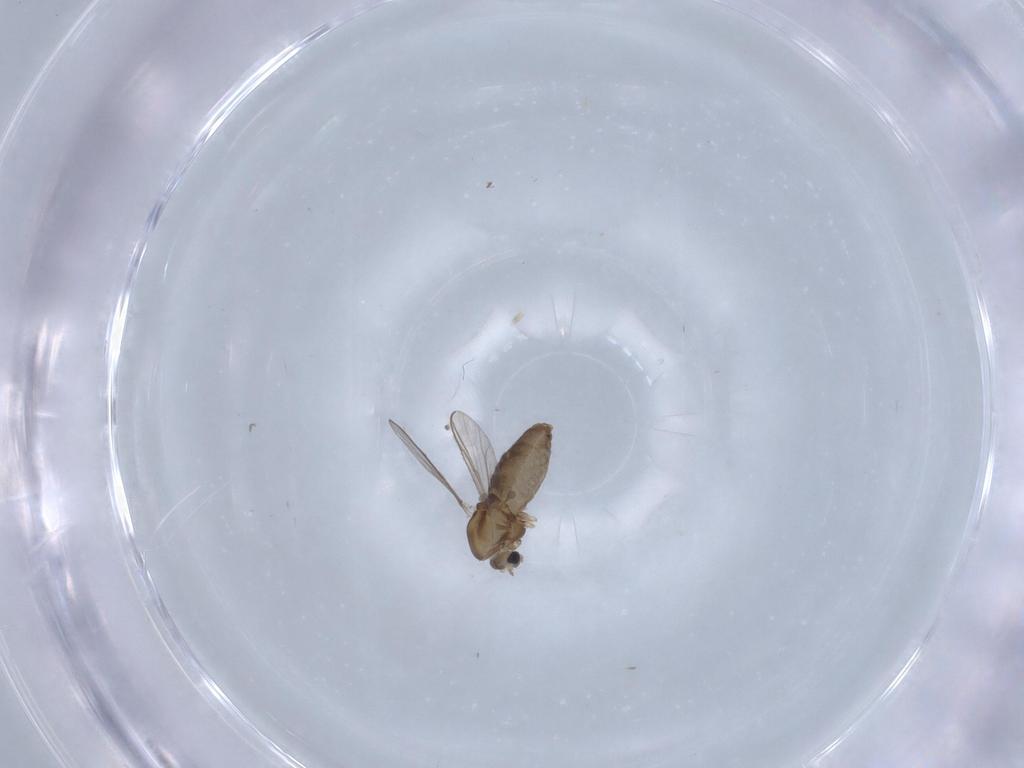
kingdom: Animalia
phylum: Arthropoda
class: Insecta
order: Diptera
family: Chironomidae
